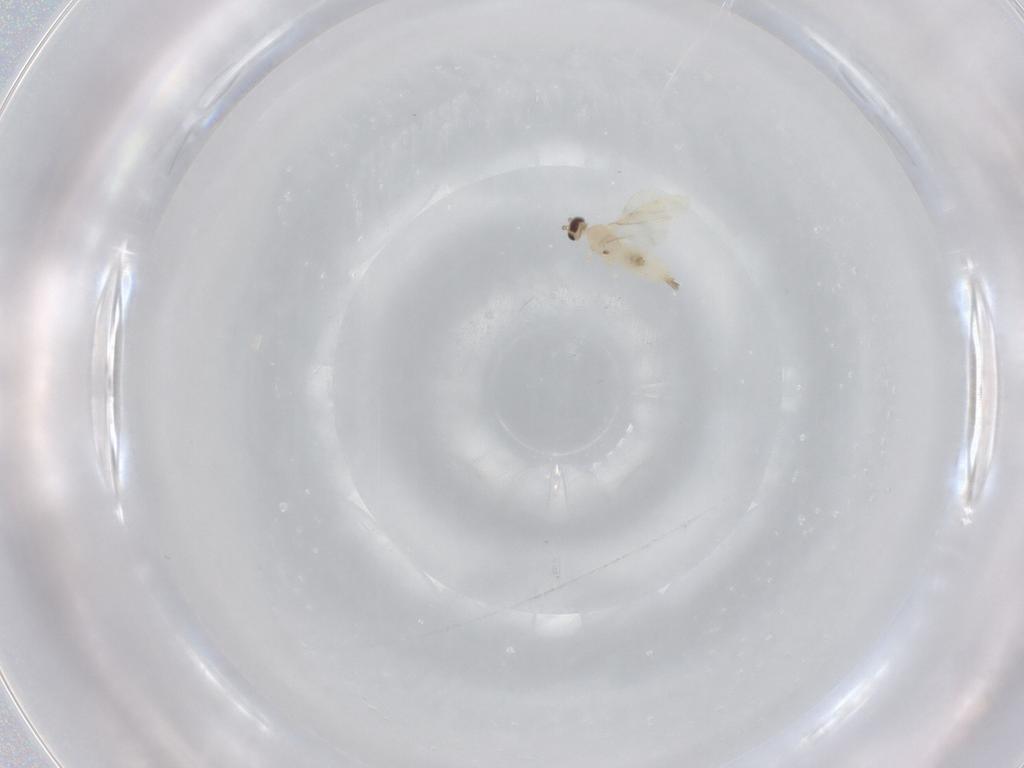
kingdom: Animalia
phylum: Arthropoda
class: Insecta
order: Diptera
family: Cecidomyiidae
